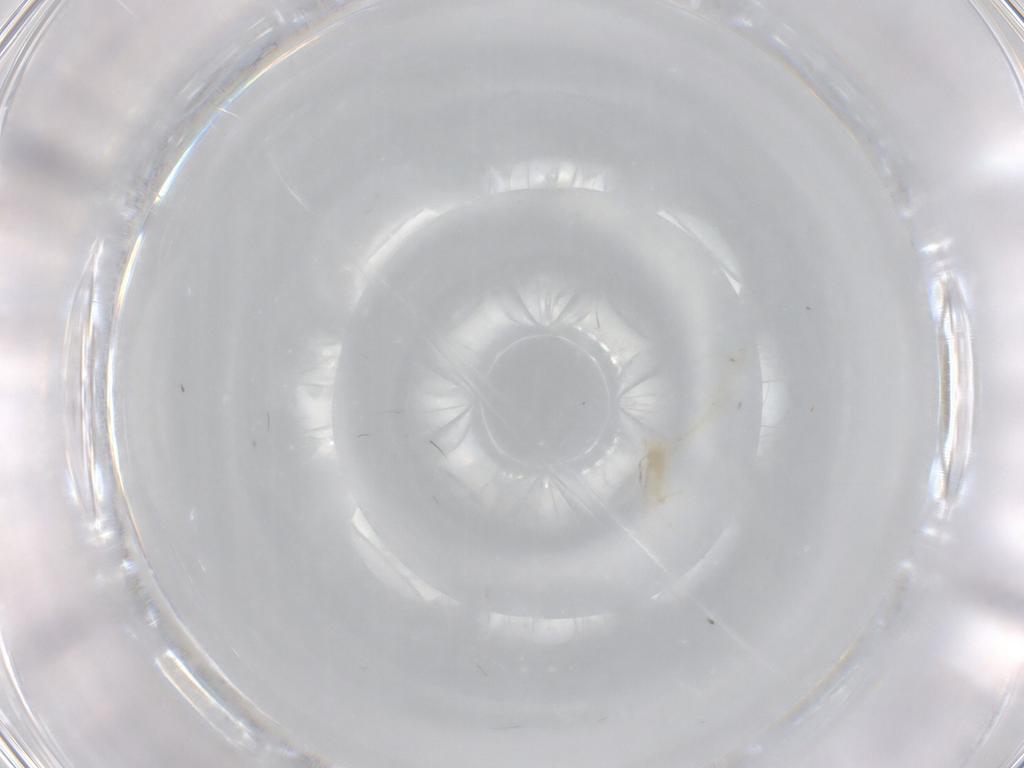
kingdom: Animalia
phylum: Arthropoda
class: Insecta
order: Diptera
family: Cecidomyiidae
